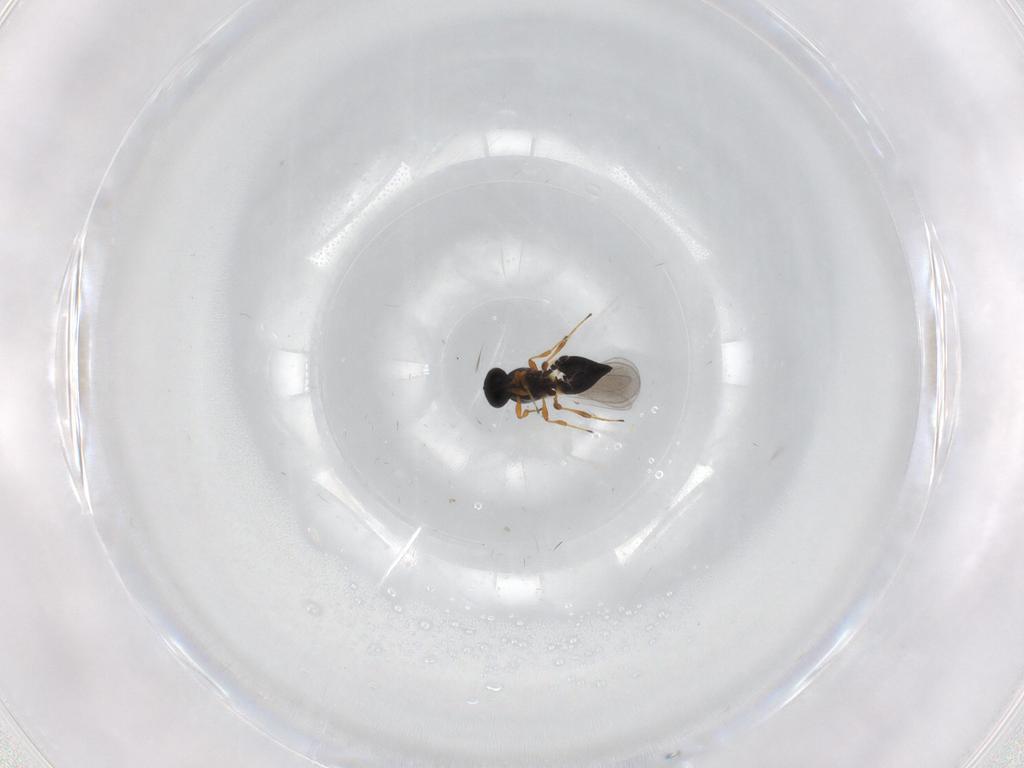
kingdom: Animalia
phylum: Arthropoda
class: Insecta
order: Hymenoptera
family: Platygastridae
